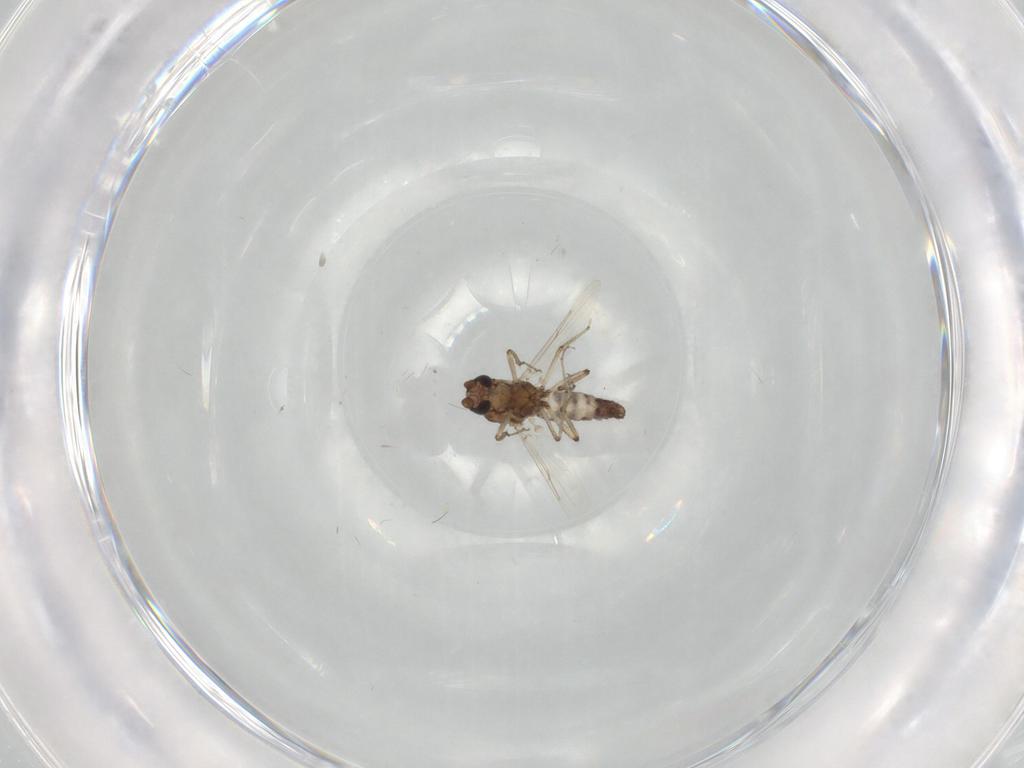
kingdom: Animalia
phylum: Arthropoda
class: Insecta
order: Diptera
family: Ceratopogonidae
